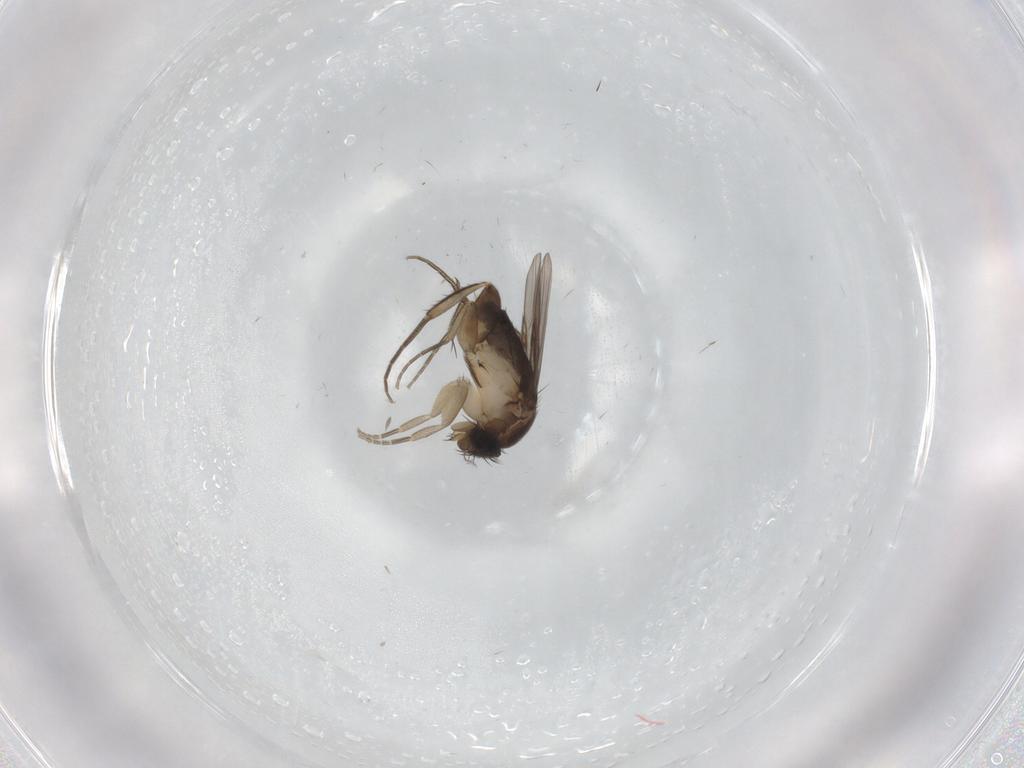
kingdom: Animalia
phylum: Arthropoda
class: Insecta
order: Diptera
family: Phoridae
